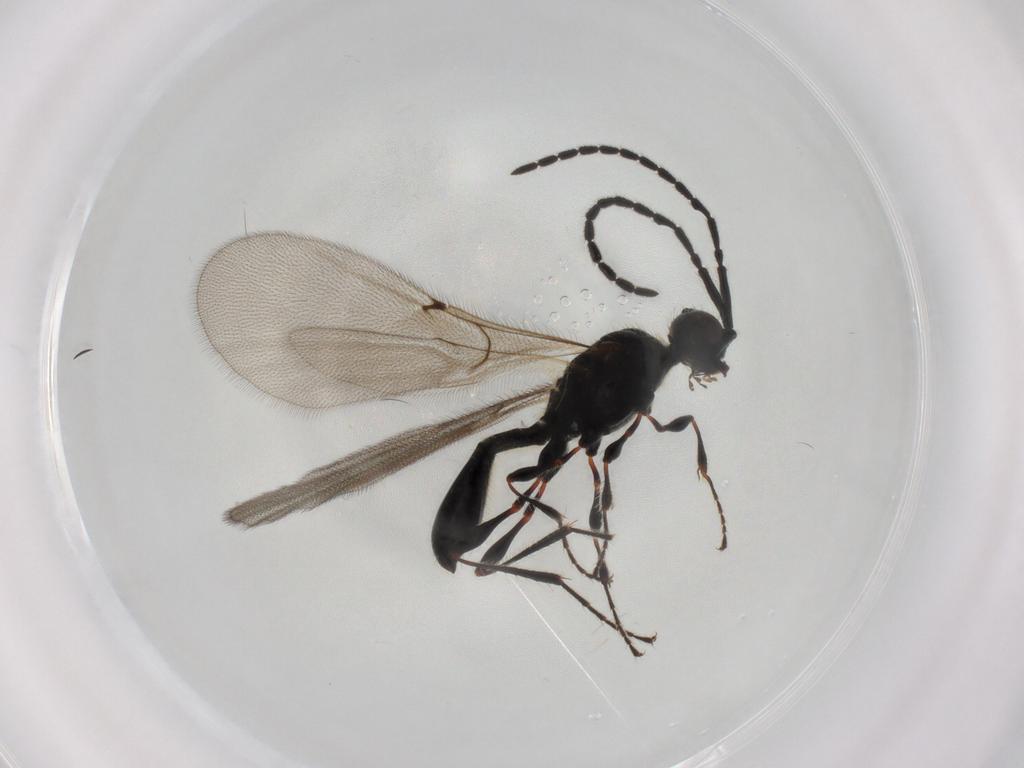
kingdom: Animalia
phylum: Arthropoda
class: Insecta
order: Hymenoptera
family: Diapriidae
